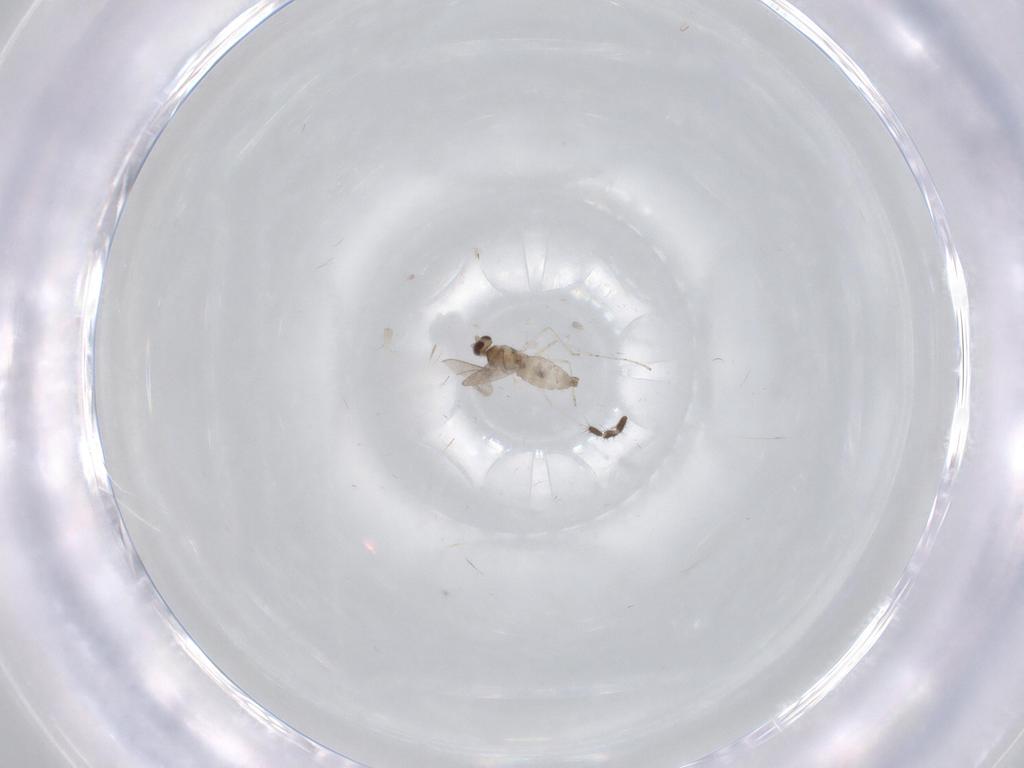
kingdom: Animalia
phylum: Arthropoda
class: Insecta
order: Diptera
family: Cecidomyiidae
